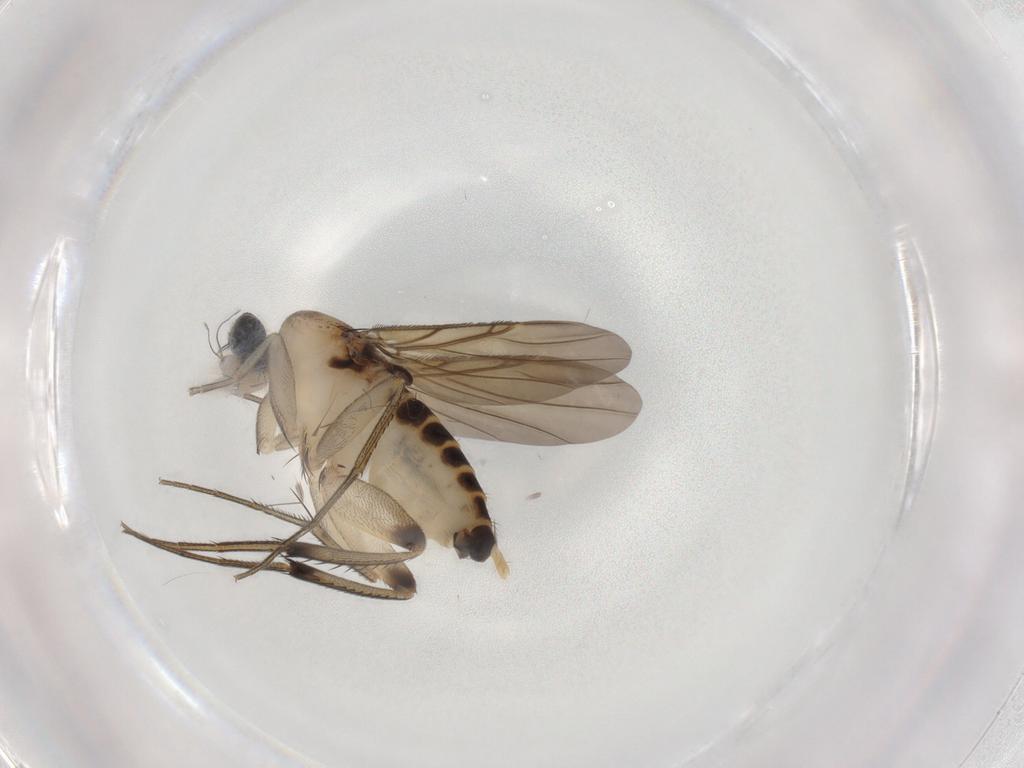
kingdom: Animalia
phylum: Arthropoda
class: Insecta
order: Diptera
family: Phoridae
